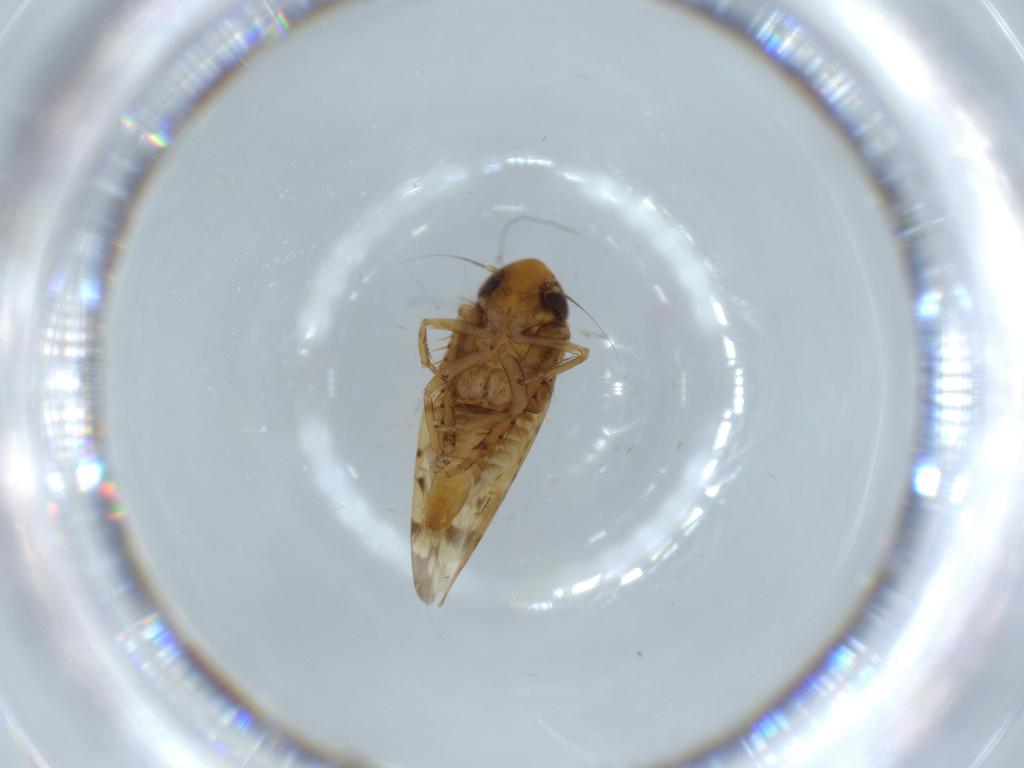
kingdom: Animalia
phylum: Arthropoda
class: Insecta
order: Hemiptera
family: Cicadellidae
